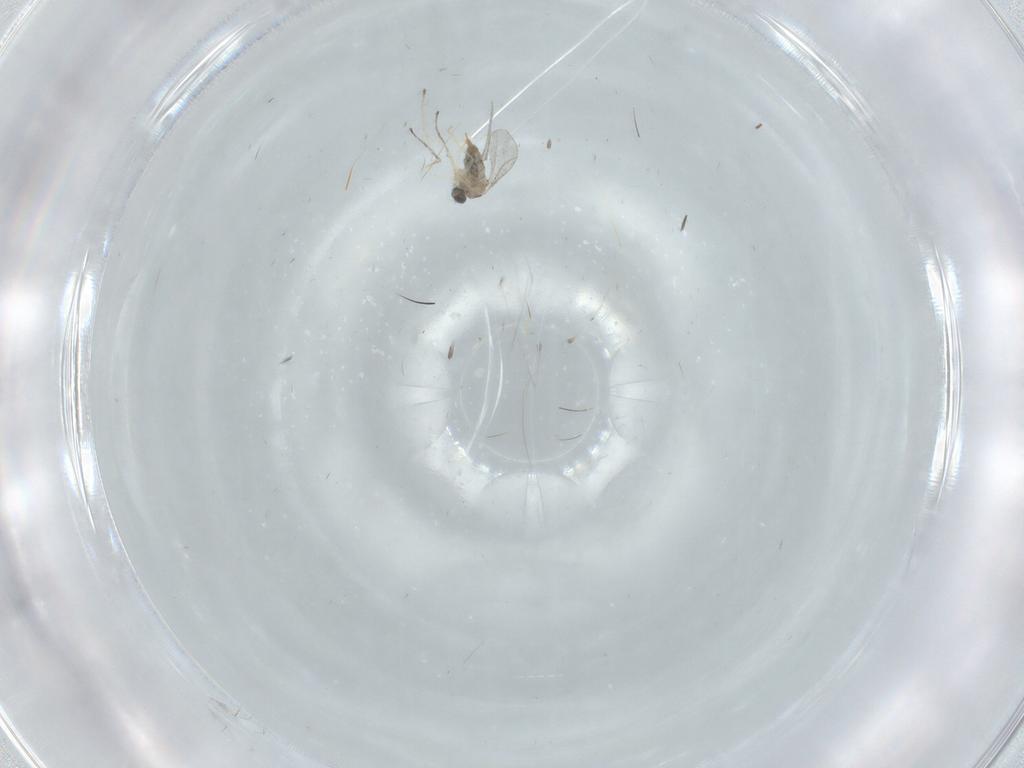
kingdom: Animalia
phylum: Arthropoda
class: Insecta
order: Diptera
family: Cecidomyiidae
